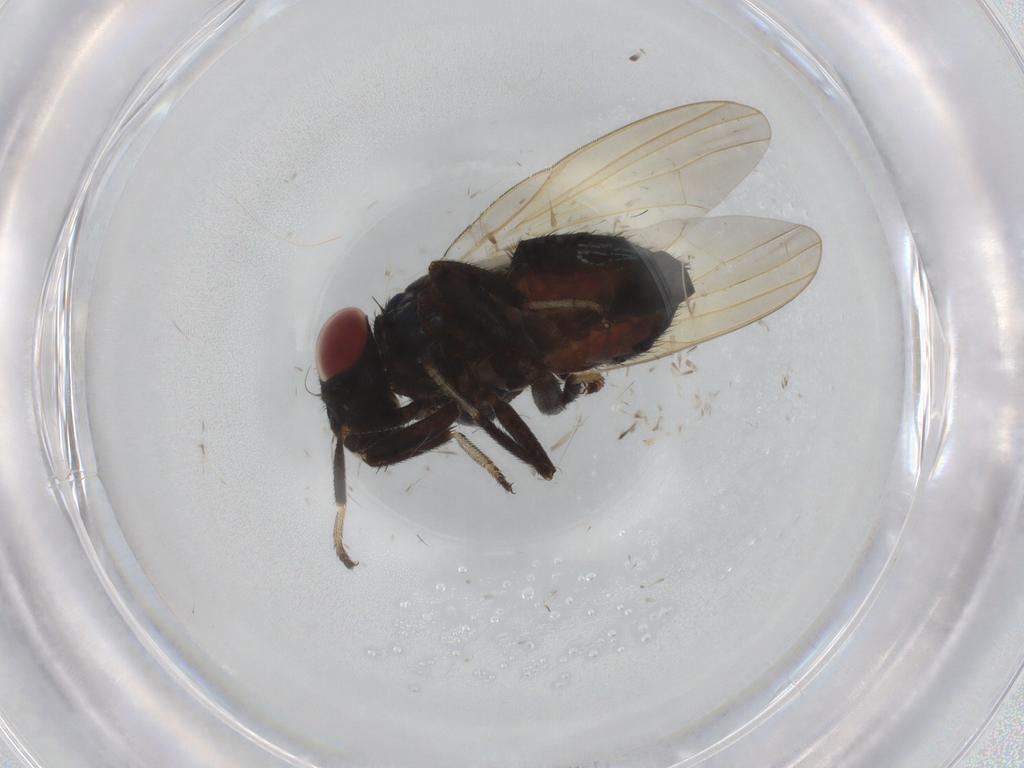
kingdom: Animalia
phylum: Arthropoda
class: Insecta
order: Diptera
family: Lonchaeidae
